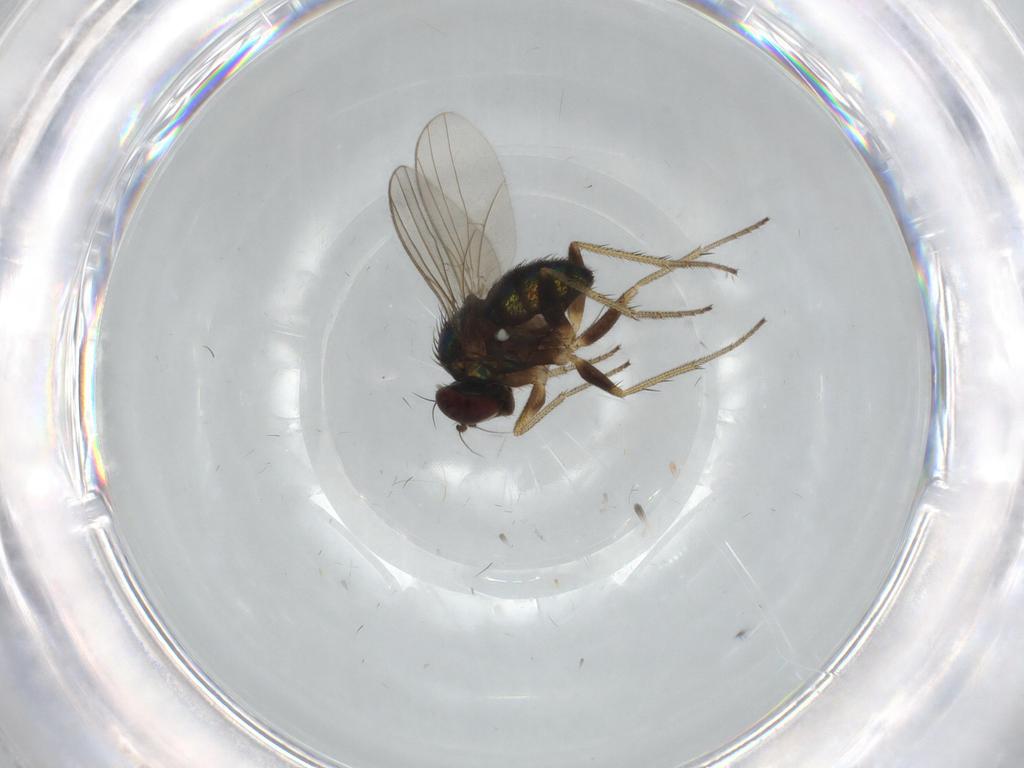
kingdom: Animalia
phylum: Arthropoda
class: Insecta
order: Diptera
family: Dolichopodidae
